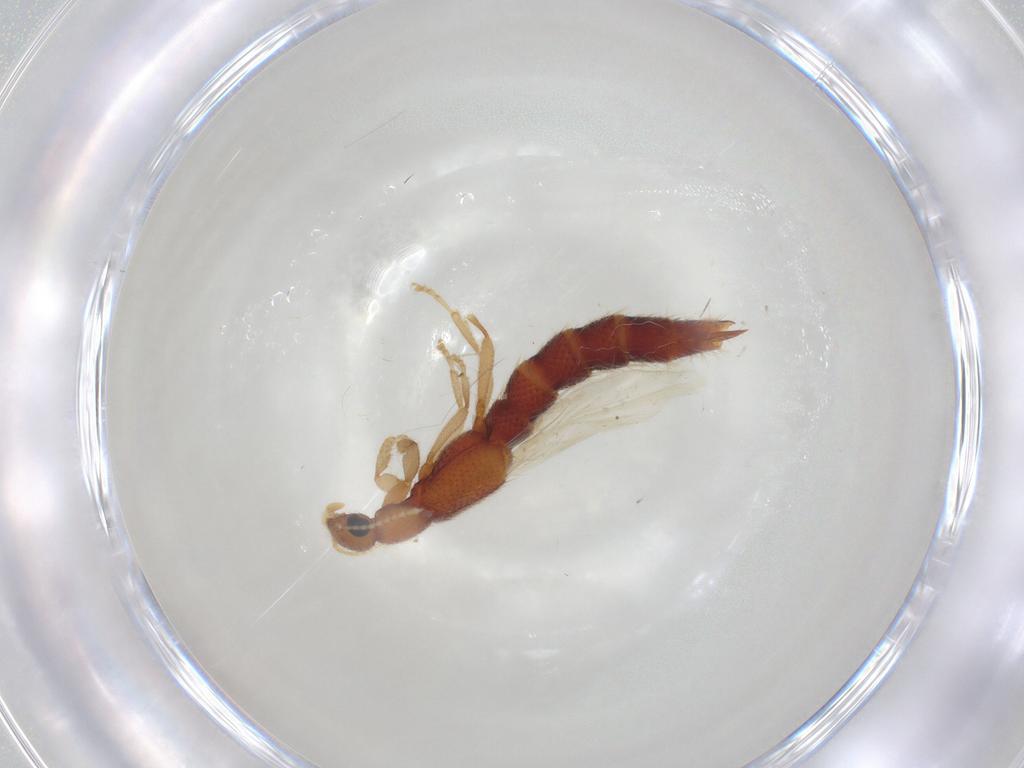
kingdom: Animalia
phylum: Arthropoda
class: Insecta
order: Coleoptera
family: Staphylinidae
